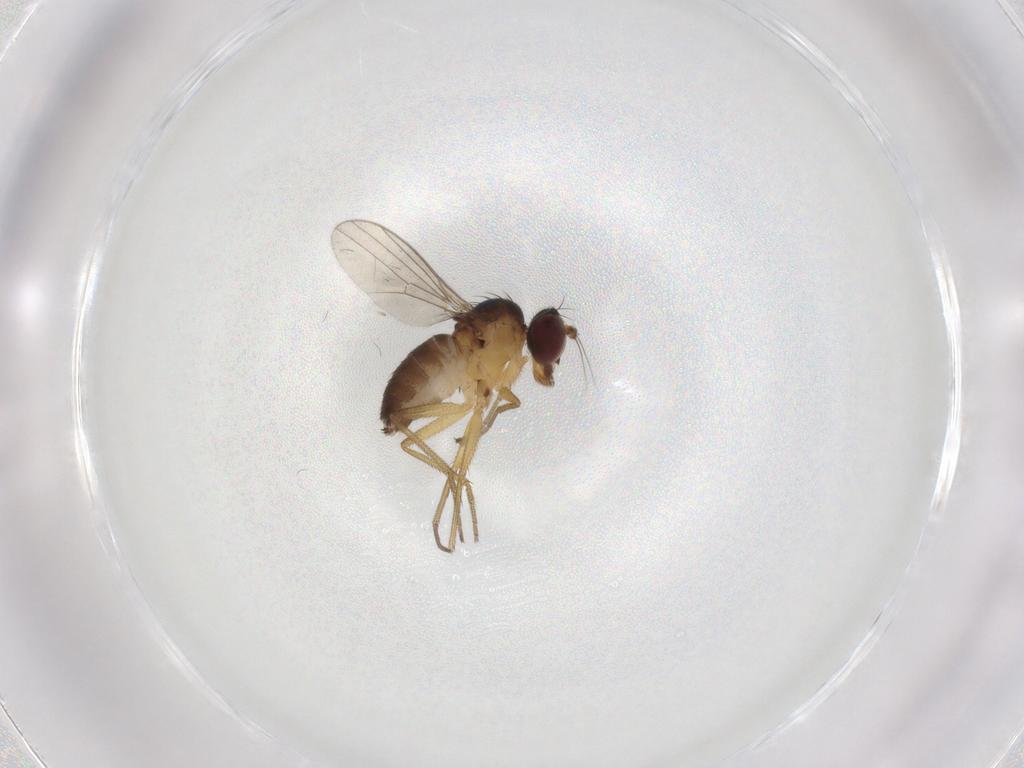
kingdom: Animalia
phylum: Arthropoda
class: Insecta
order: Diptera
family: Dolichopodidae
